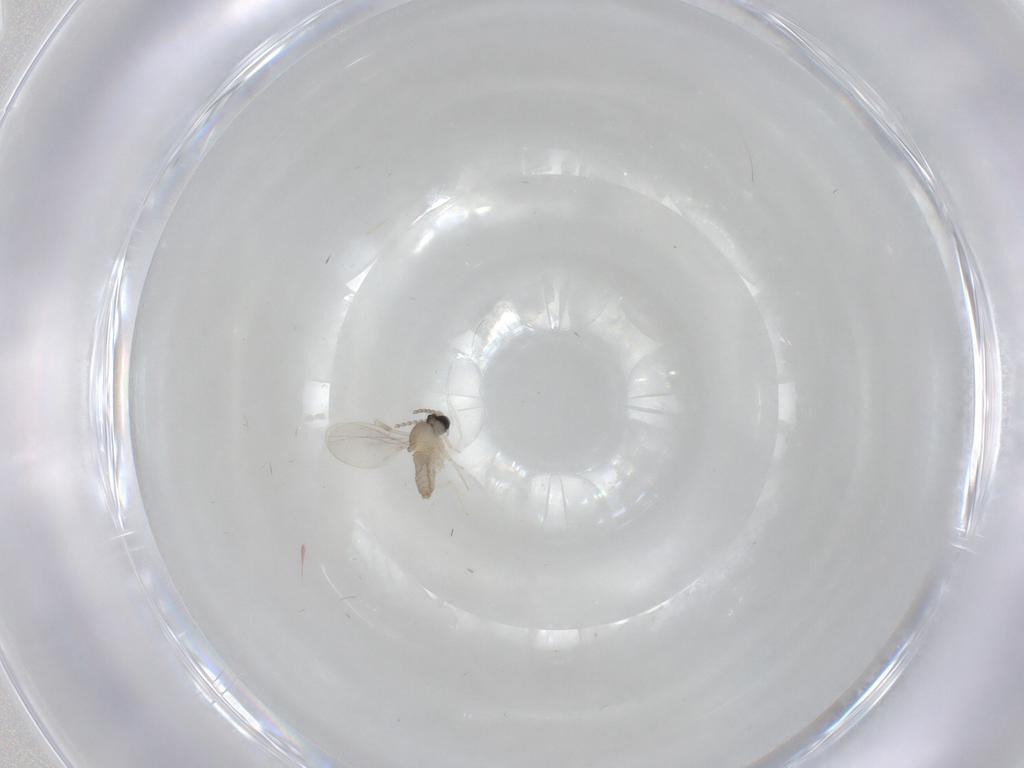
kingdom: Animalia
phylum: Arthropoda
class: Insecta
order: Diptera
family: Cecidomyiidae
